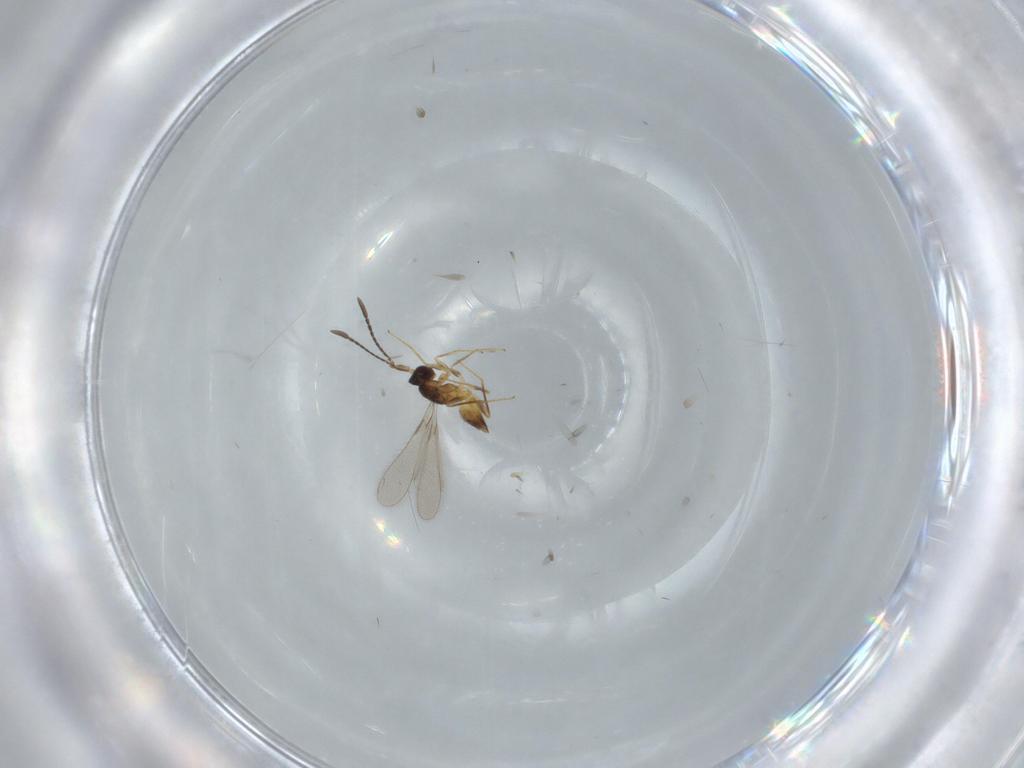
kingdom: Animalia
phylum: Arthropoda
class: Insecta
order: Hymenoptera
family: Mymaridae
